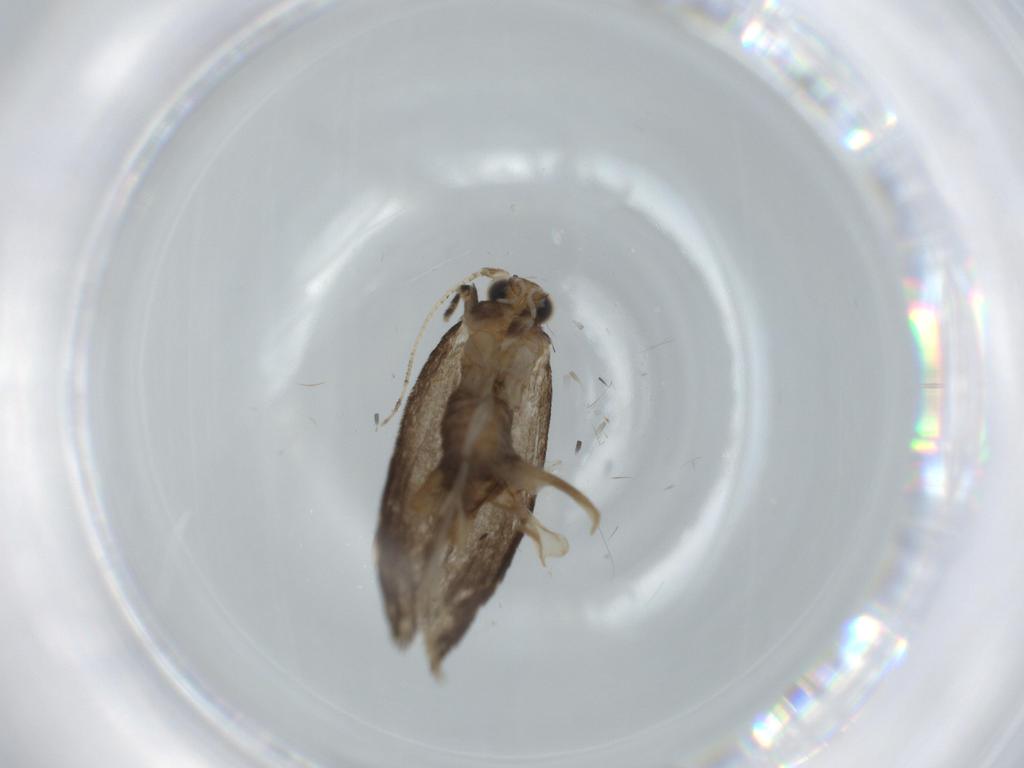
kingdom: Animalia
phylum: Arthropoda
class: Insecta
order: Lepidoptera
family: Tineidae
